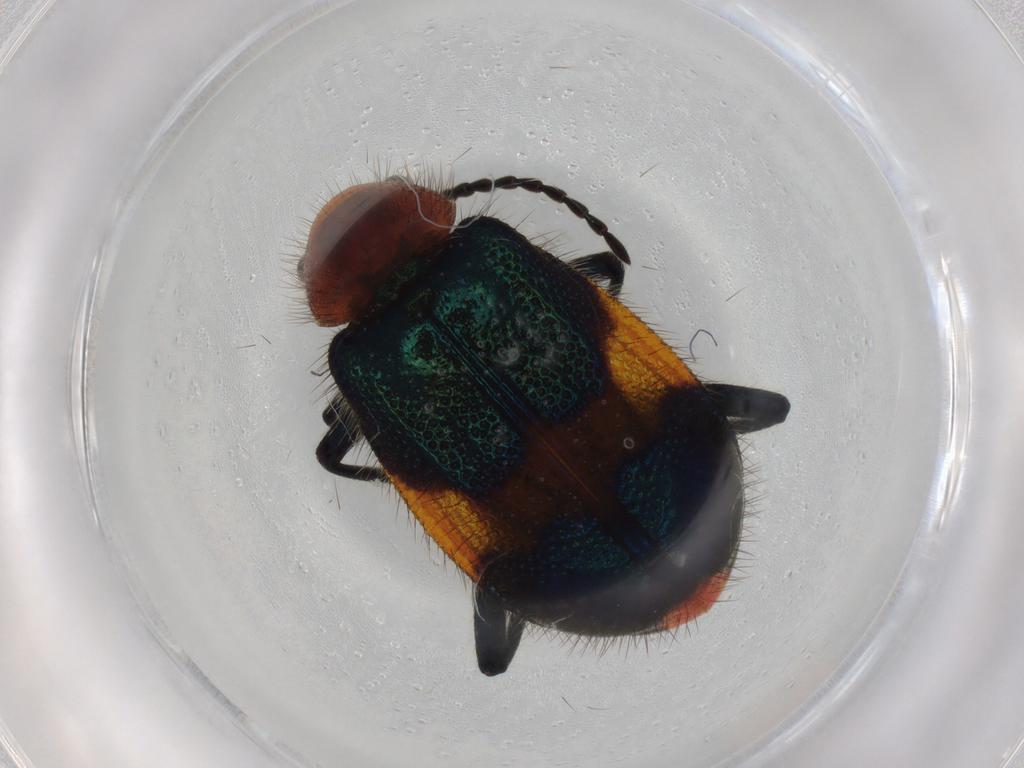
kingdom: Animalia
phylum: Arthropoda
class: Insecta
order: Coleoptera
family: Melyridae
